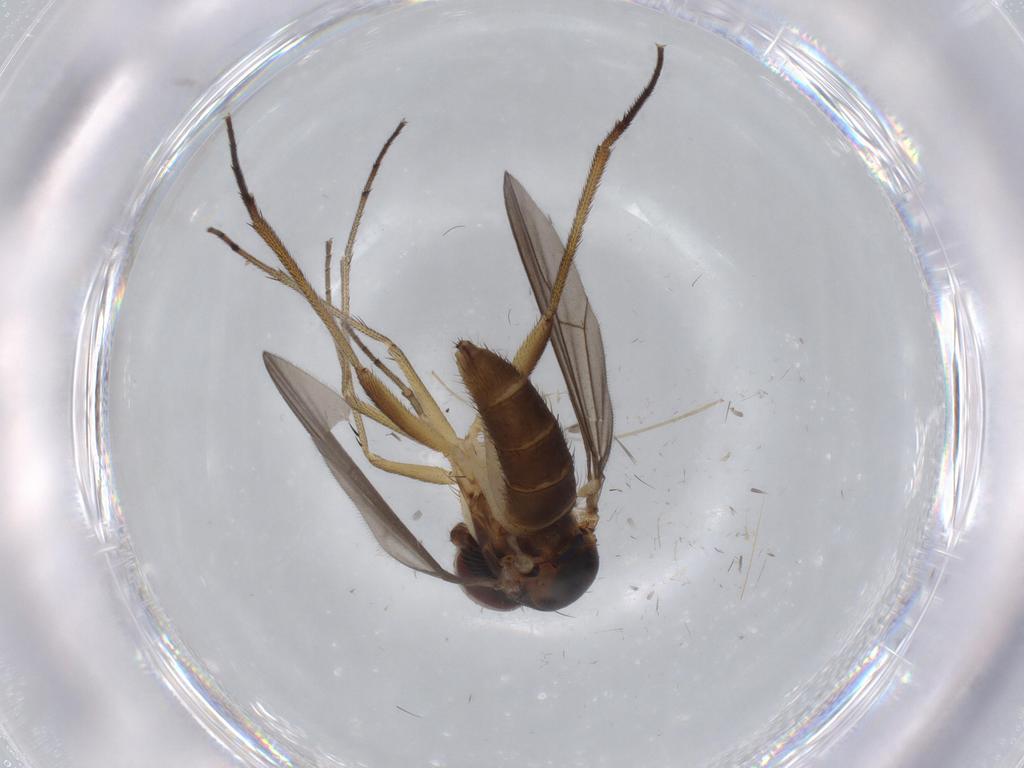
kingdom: Animalia
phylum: Arthropoda
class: Insecta
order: Diptera
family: Chironomidae
